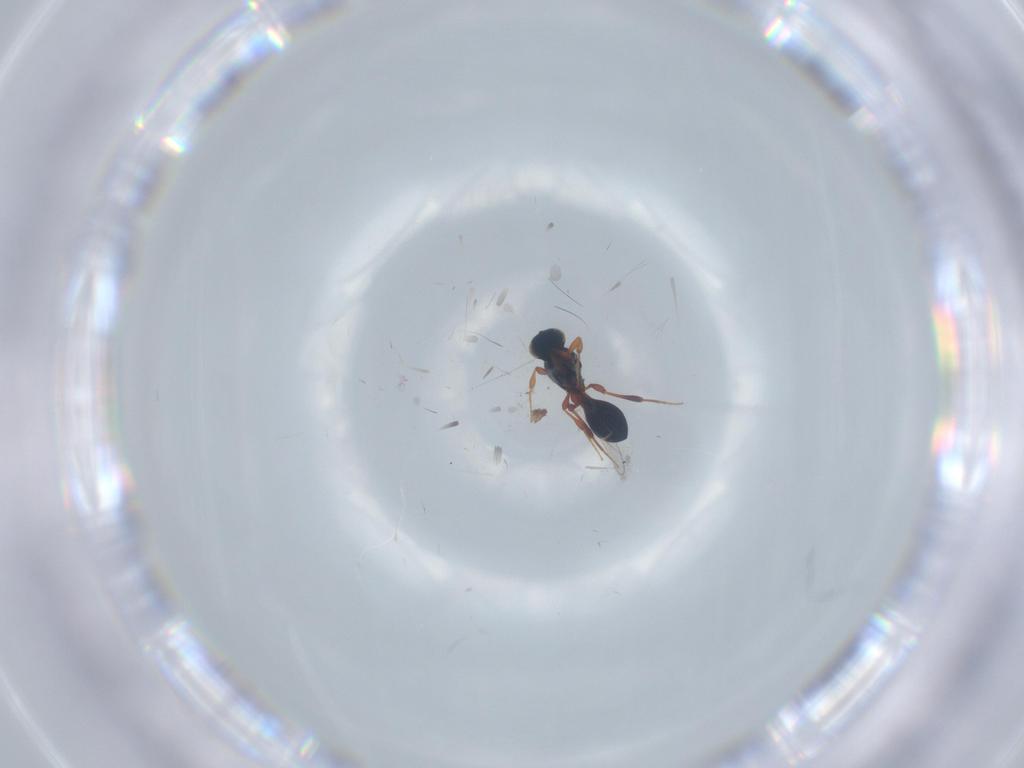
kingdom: Animalia
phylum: Arthropoda
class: Insecta
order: Hymenoptera
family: Platygastridae
